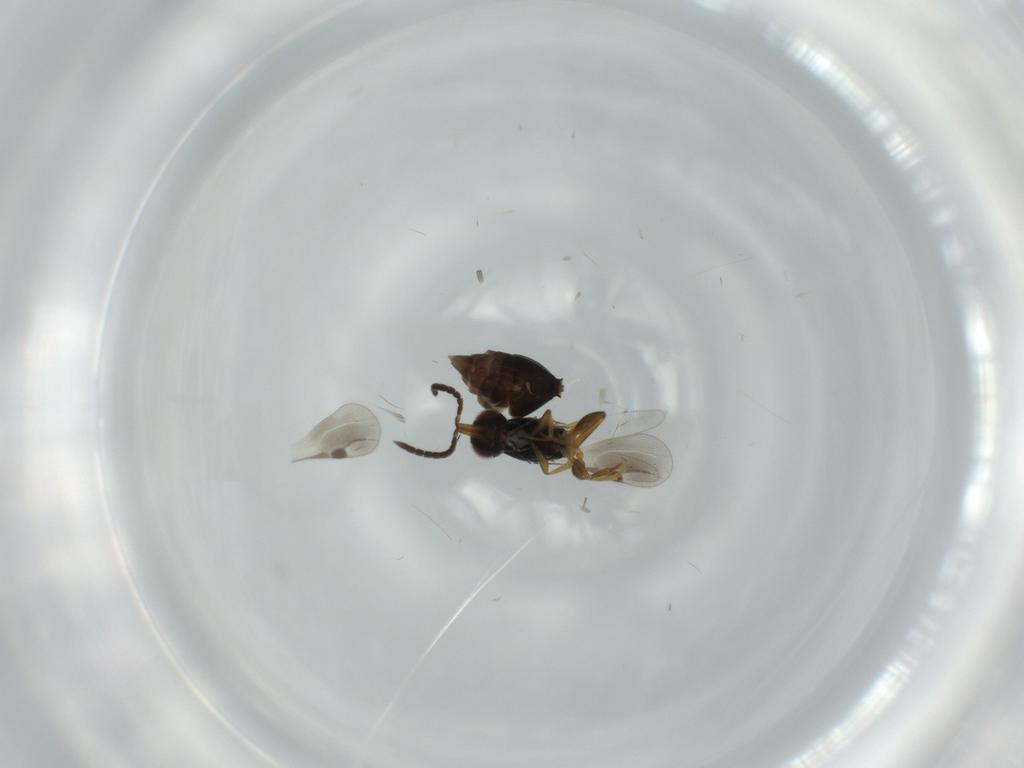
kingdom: Animalia
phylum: Arthropoda
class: Insecta
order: Hymenoptera
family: Megaspilidae
